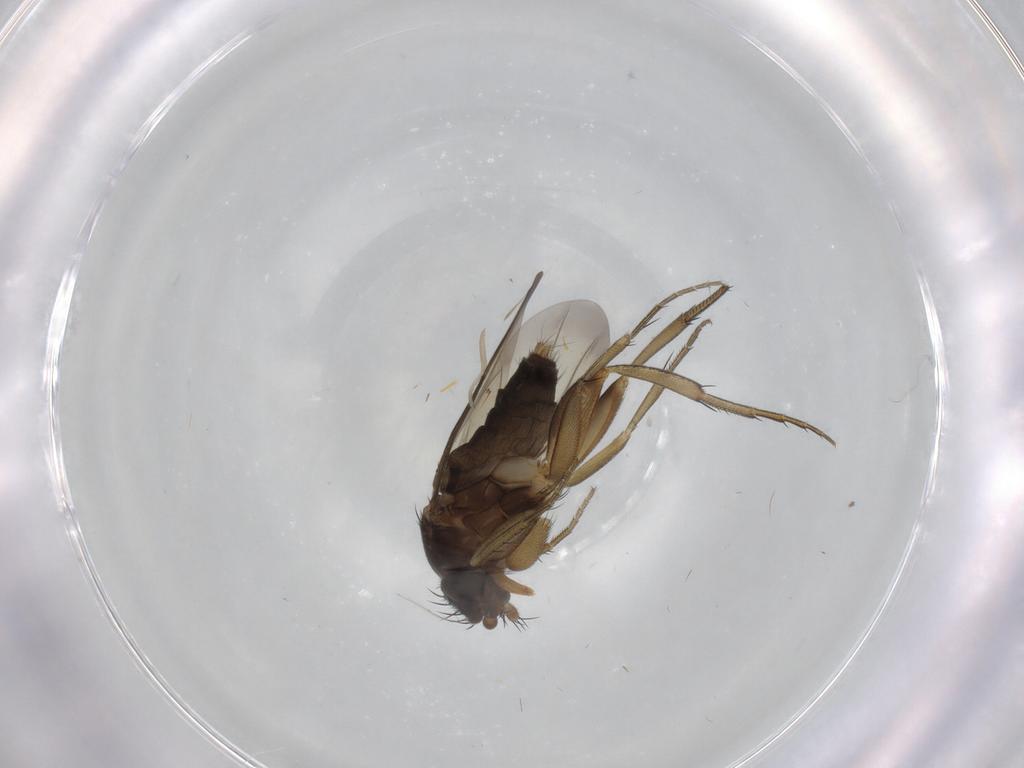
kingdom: Animalia
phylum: Arthropoda
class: Insecta
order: Diptera
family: Cecidomyiidae
